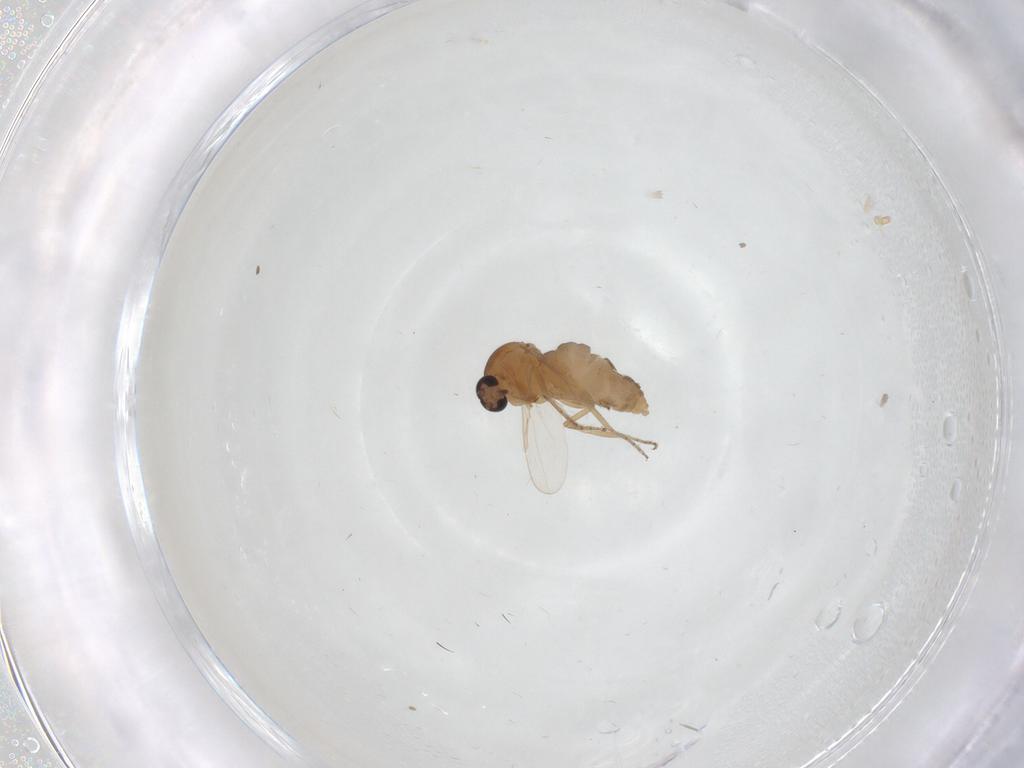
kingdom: Animalia
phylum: Arthropoda
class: Insecta
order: Diptera
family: Ceratopogonidae
